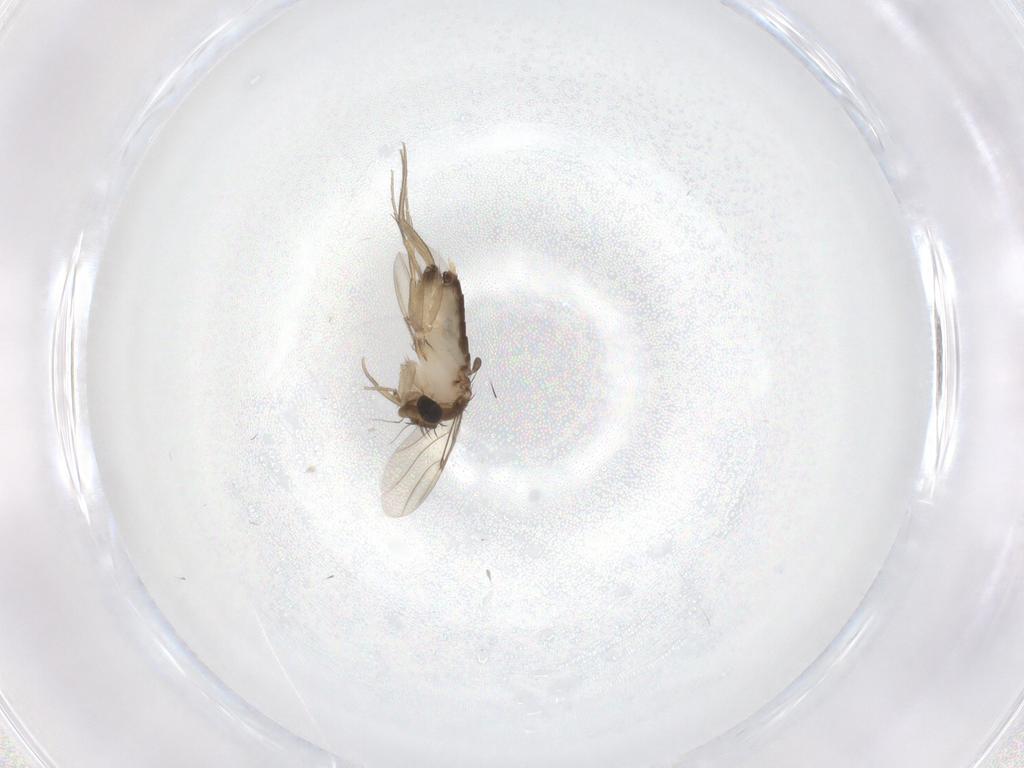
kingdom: Animalia
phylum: Arthropoda
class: Insecta
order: Diptera
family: Phoridae
